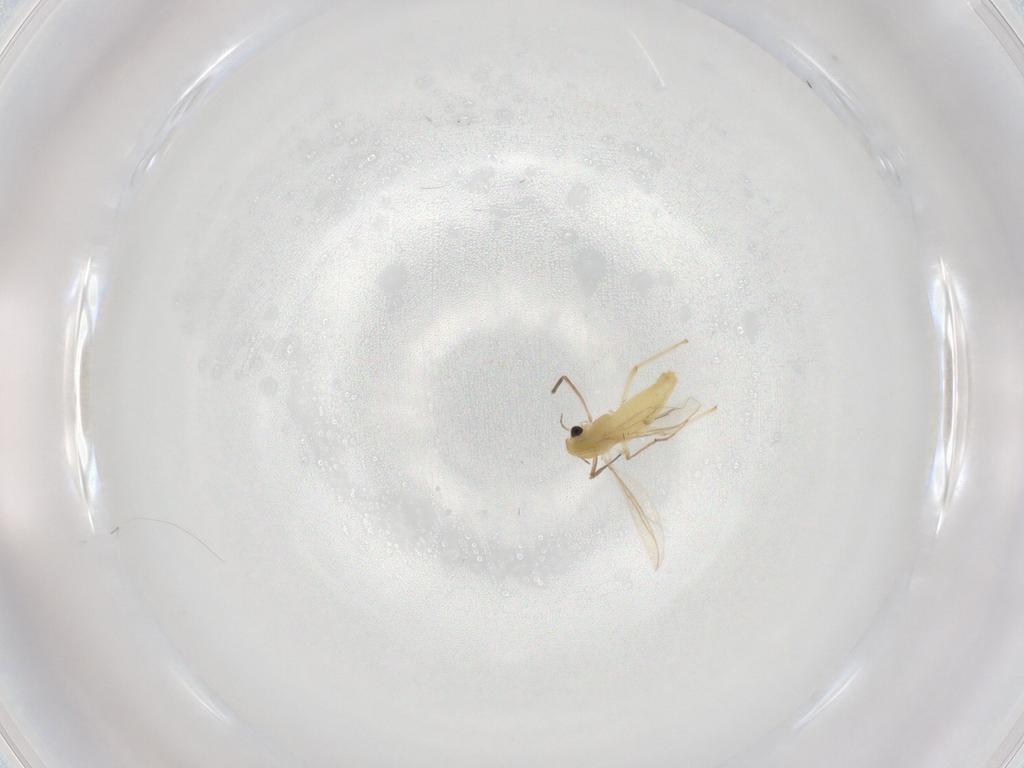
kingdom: Animalia
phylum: Arthropoda
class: Insecta
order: Diptera
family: Chironomidae
